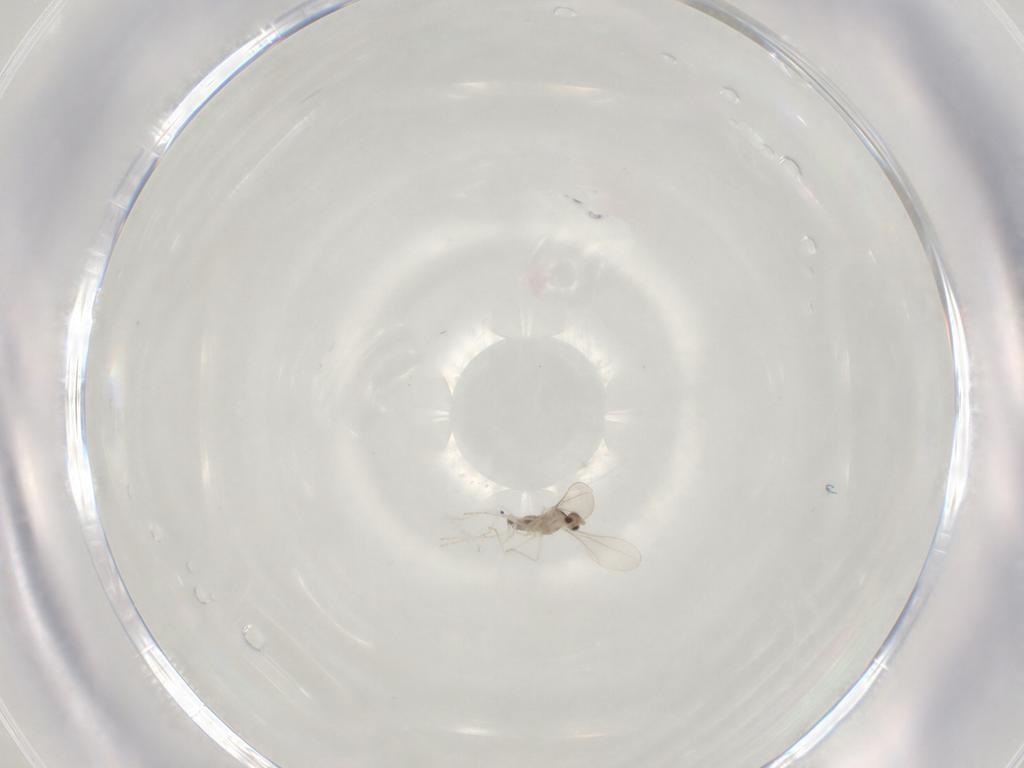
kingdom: Animalia
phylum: Arthropoda
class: Insecta
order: Diptera
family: Cecidomyiidae
